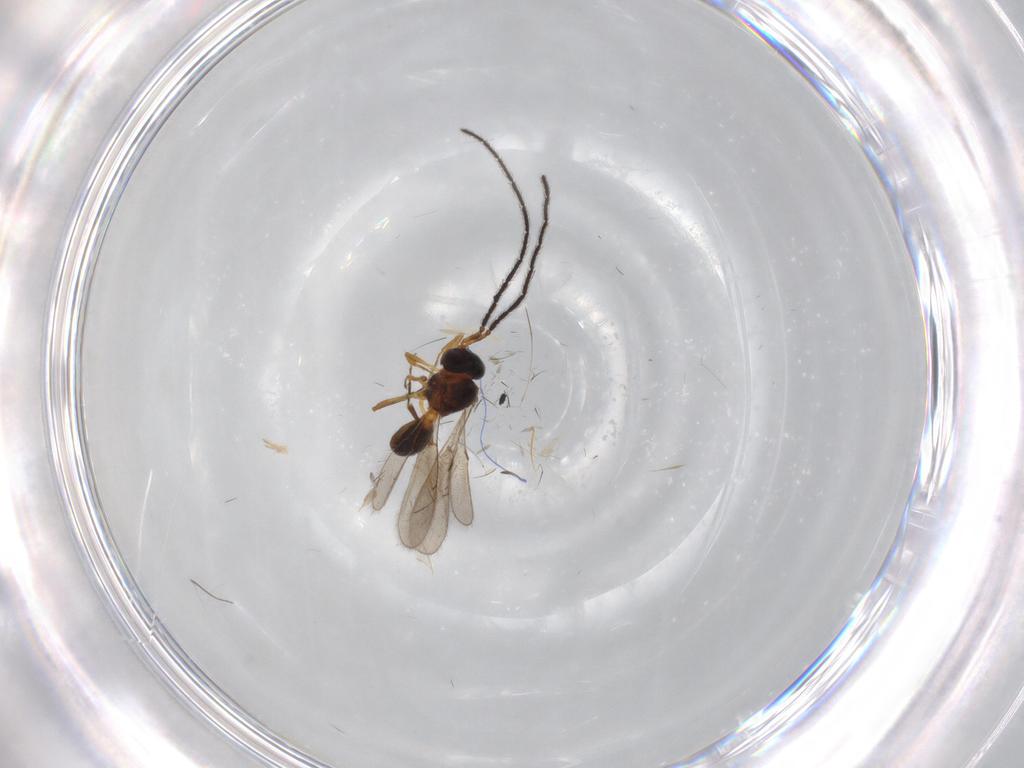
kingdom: Animalia
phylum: Arthropoda
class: Insecta
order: Hymenoptera
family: Scelionidae
